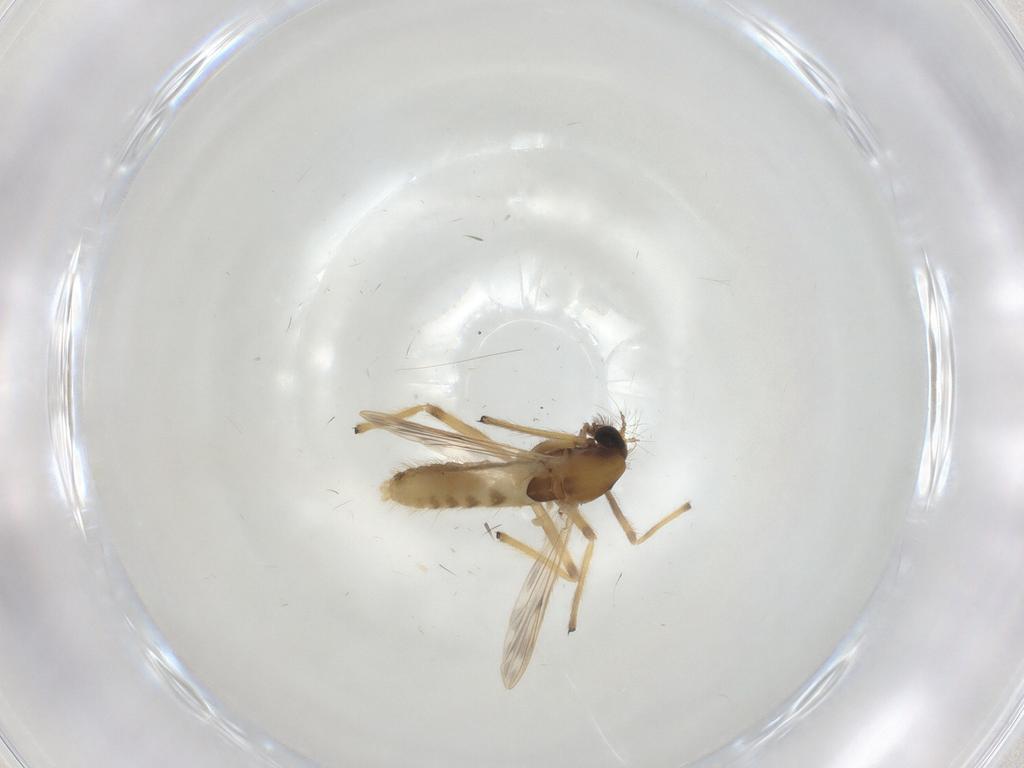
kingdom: Animalia
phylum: Arthropoda
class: Insecta
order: Diptera
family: Chironomidae
